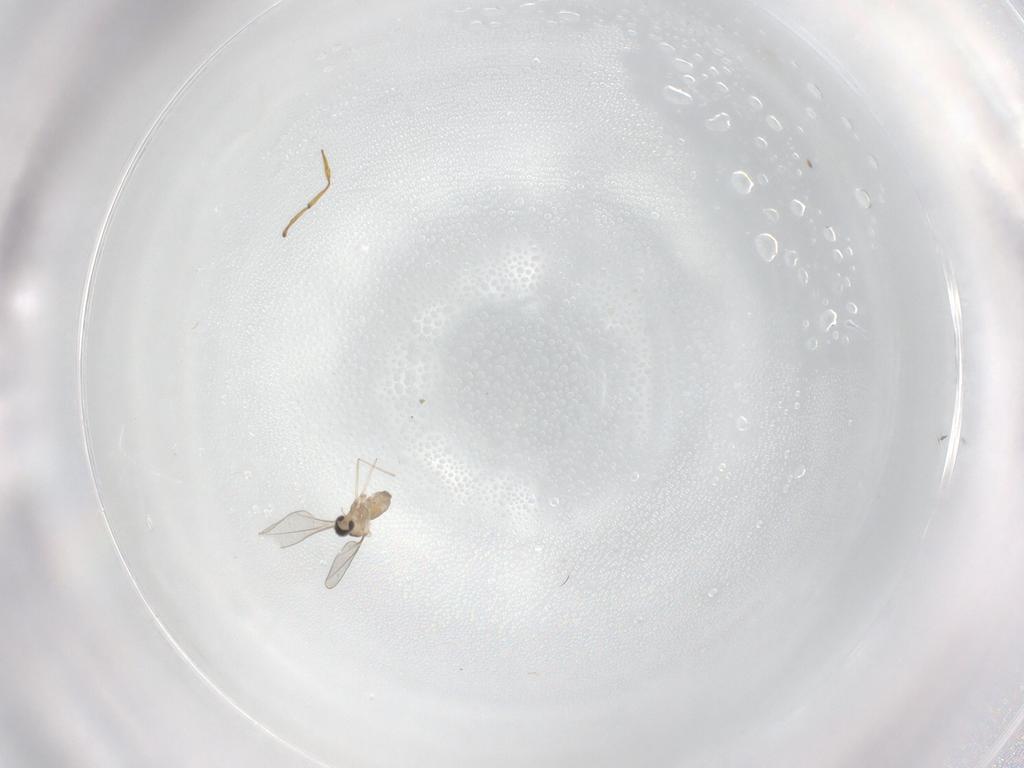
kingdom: Animalia
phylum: Arthropoda
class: Insecta
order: Diptera
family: Cecidomyiidae
